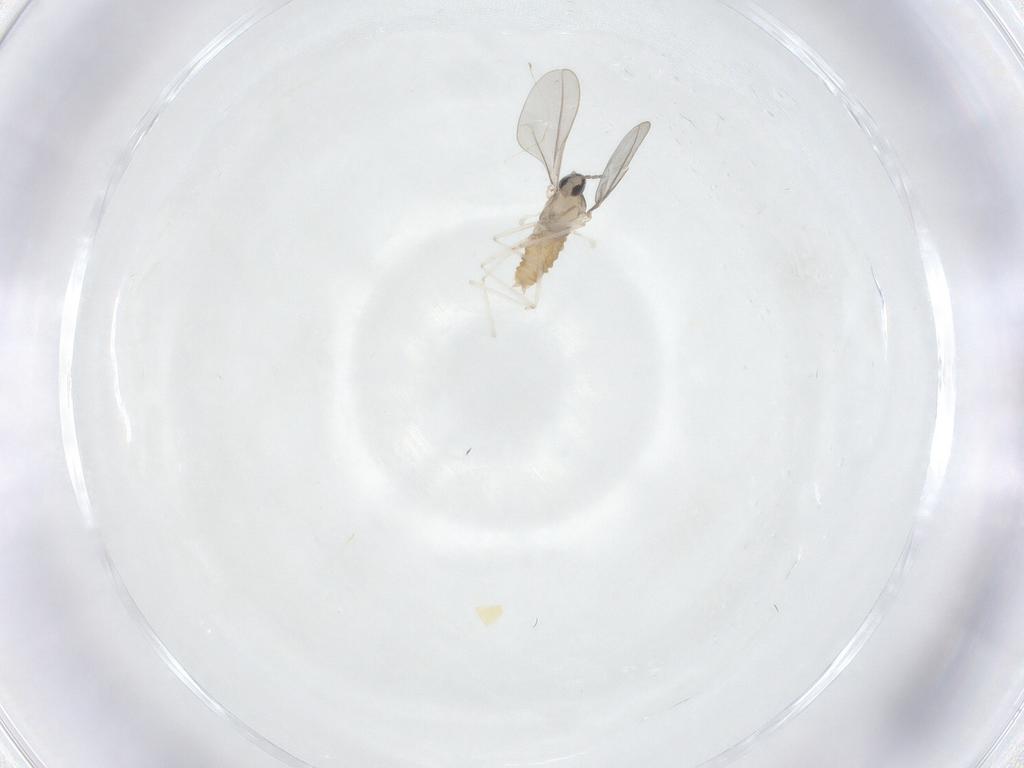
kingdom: Animalia
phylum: Arthropoda
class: Insecta
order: Diptera
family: Cecidomyiidae
